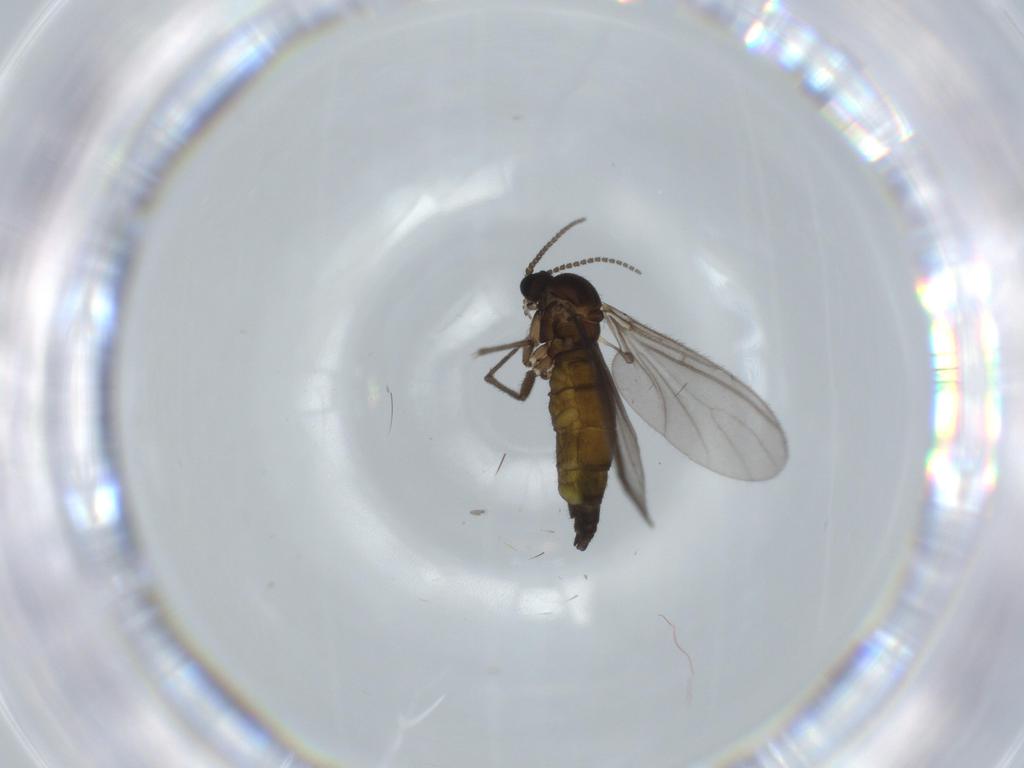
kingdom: Animalia
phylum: Arthropoda
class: Insecta
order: Diptera
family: Sciaridae
